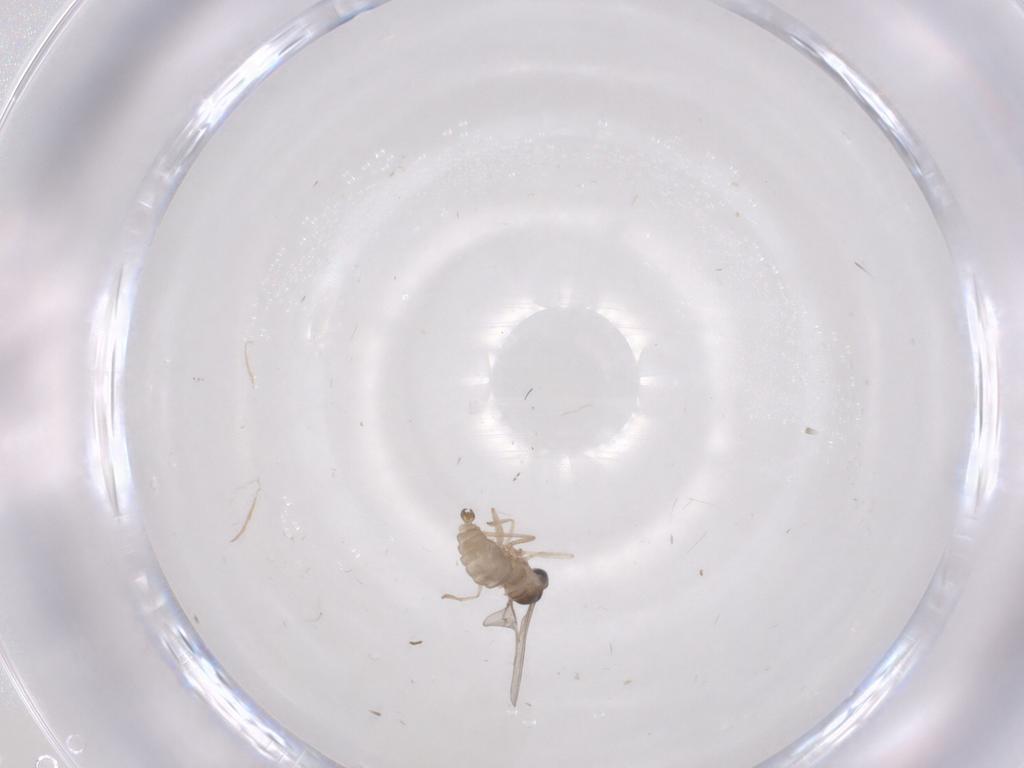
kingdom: Animalia
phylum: Arthropoda
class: Insecta
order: Diptera
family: Cecidomyiidae
